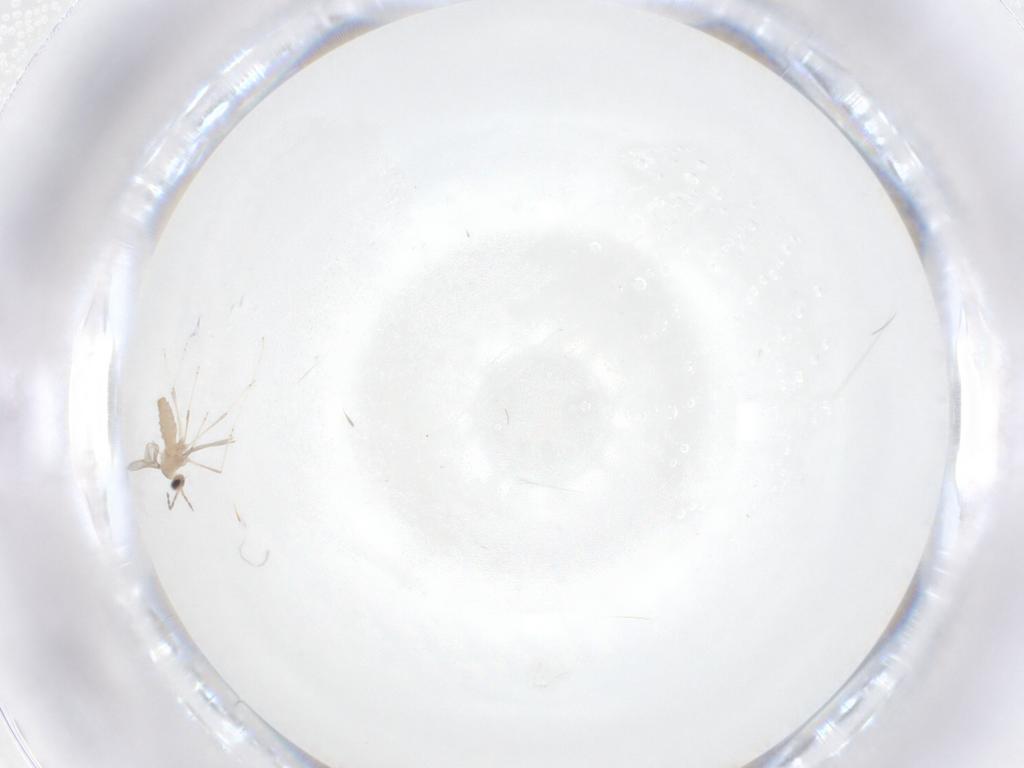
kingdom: Animalia
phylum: Arthropoda
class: Insecta
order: Diptera
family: Cecidomyiidae
